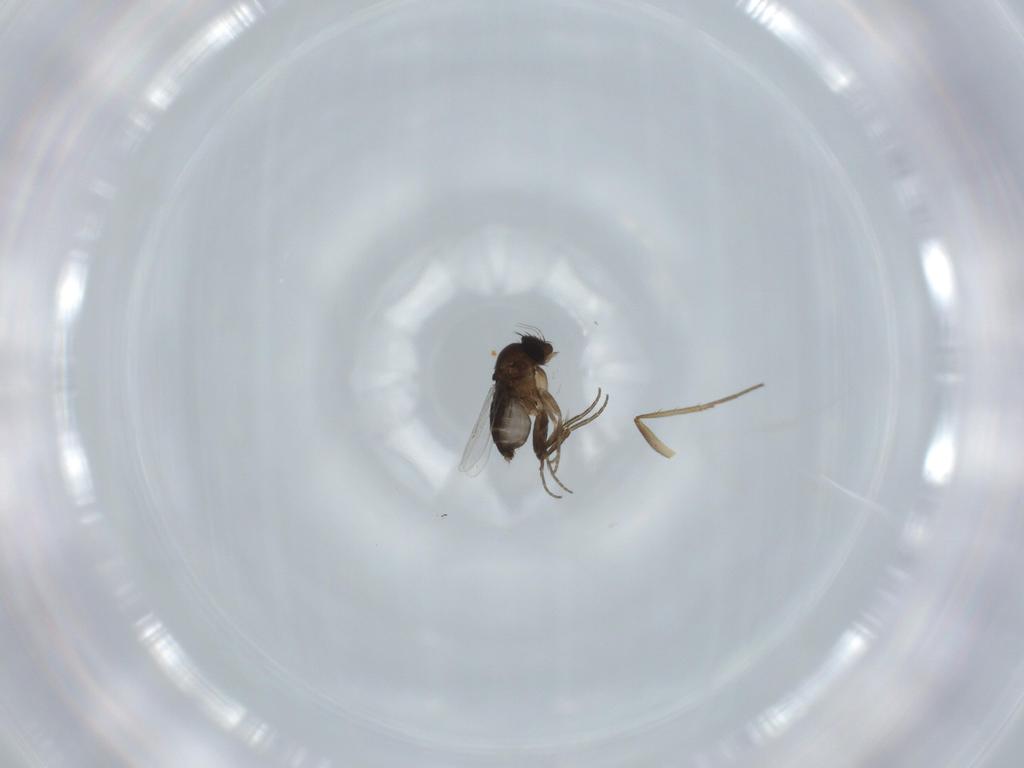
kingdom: Animalia
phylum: Arthropoda
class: Insecta
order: Diptera
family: Phoridae
